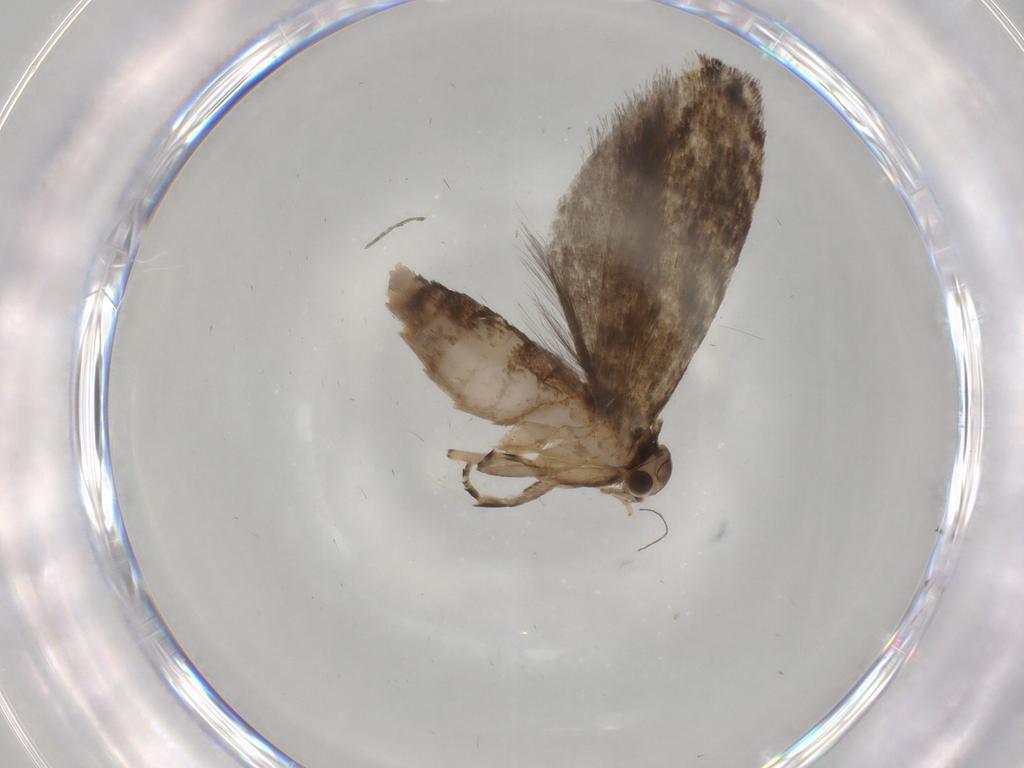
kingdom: Animalia
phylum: Arthropoda
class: Insecta
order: Lepidoptera
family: Tineidae
